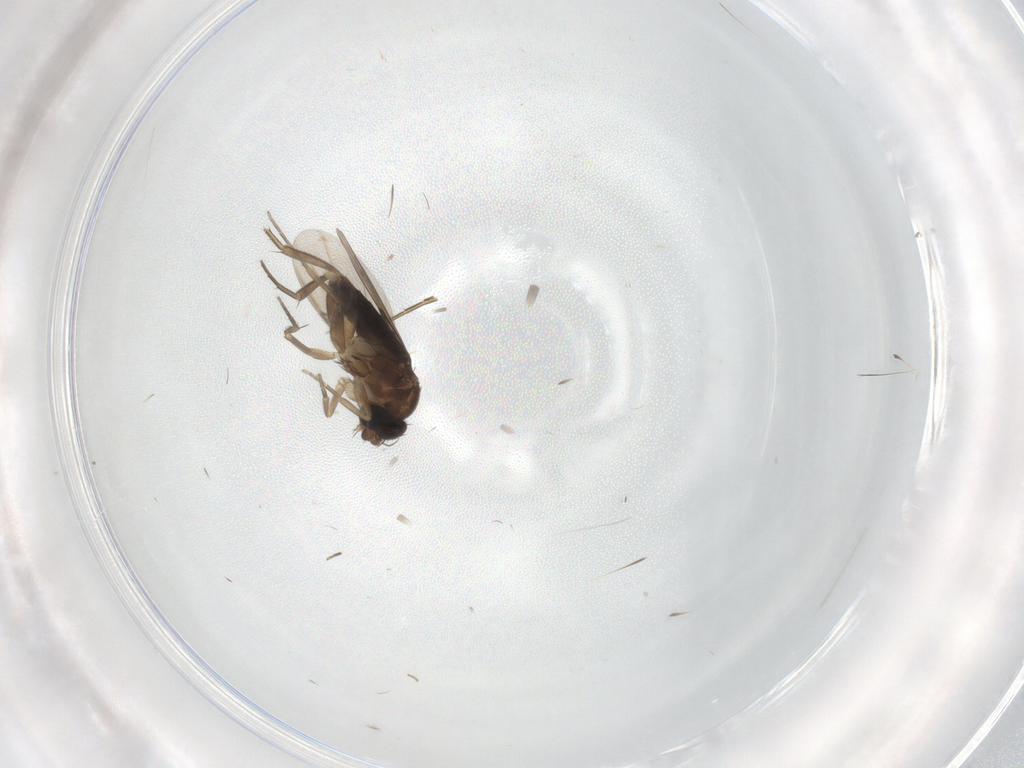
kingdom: Animalia
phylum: Arthropoda
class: Insecta
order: Diptera
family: Phoridae
